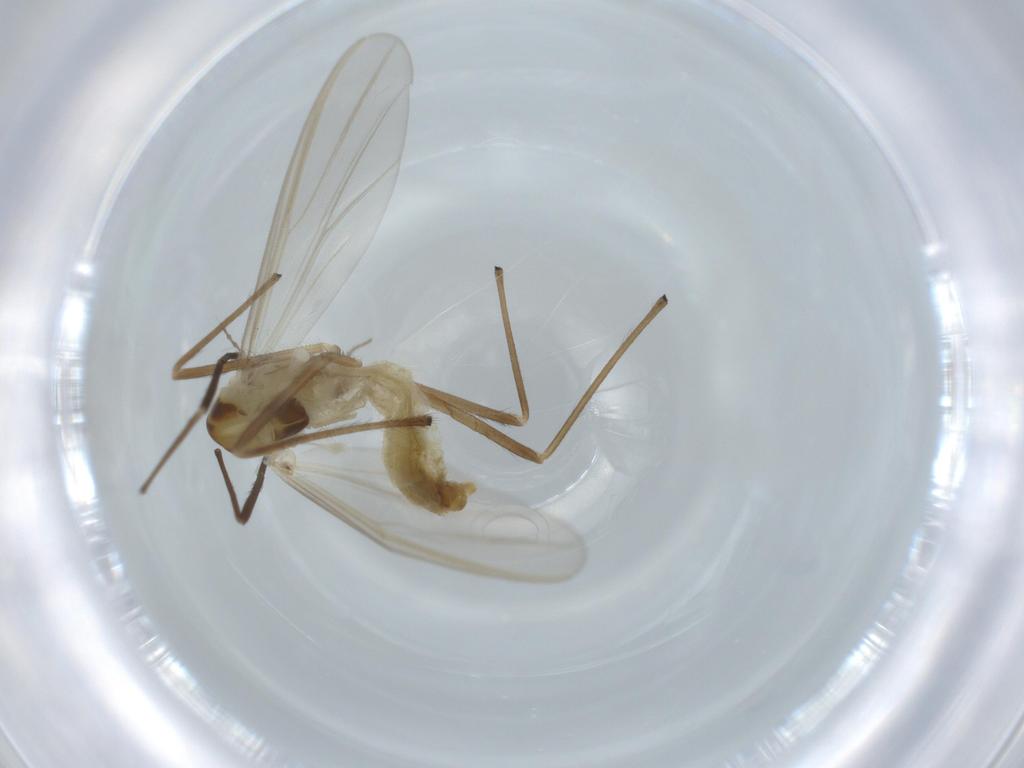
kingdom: Animalia
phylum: Arthropoda
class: Insecta
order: Diptera
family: Chironomidae
